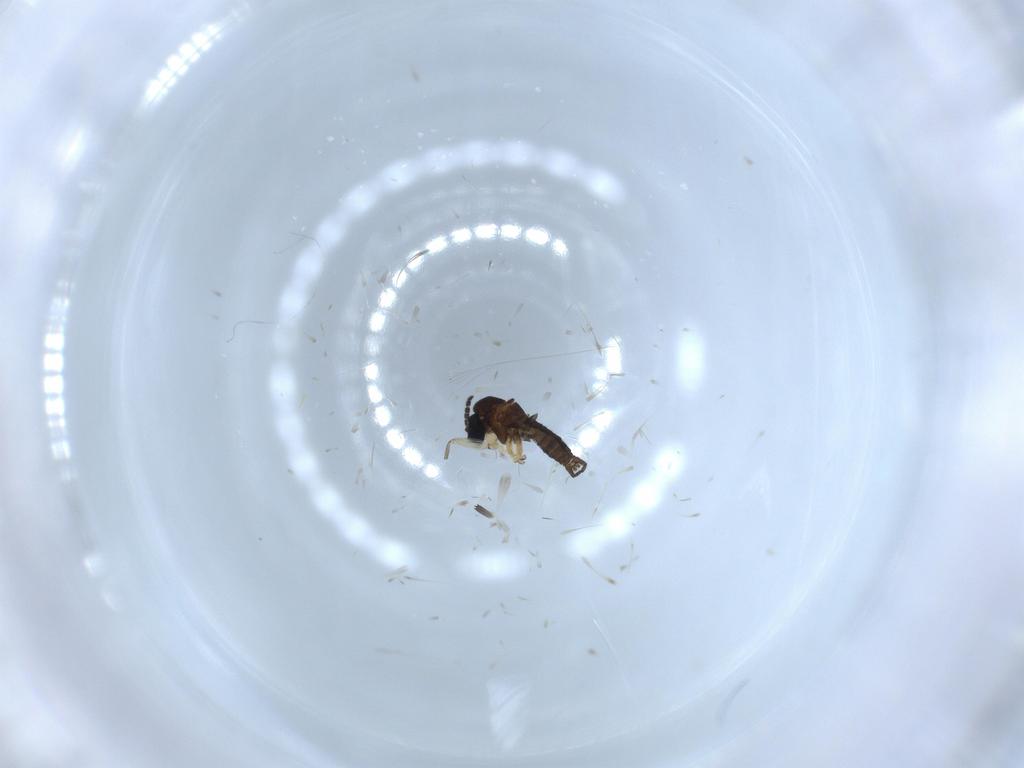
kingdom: Animalia
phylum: Arthropoda
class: Insecta
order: Diptera
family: Sciaridae
